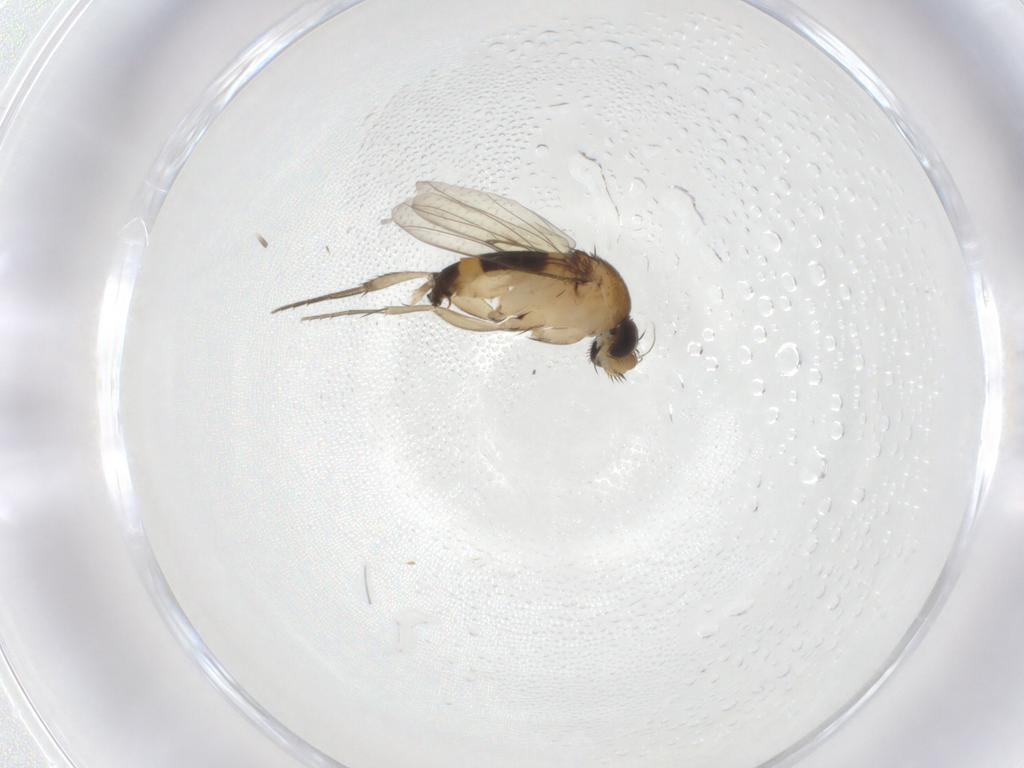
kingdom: Animalia
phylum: Arthropoda
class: Insecta
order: Diptera
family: Phoridae
